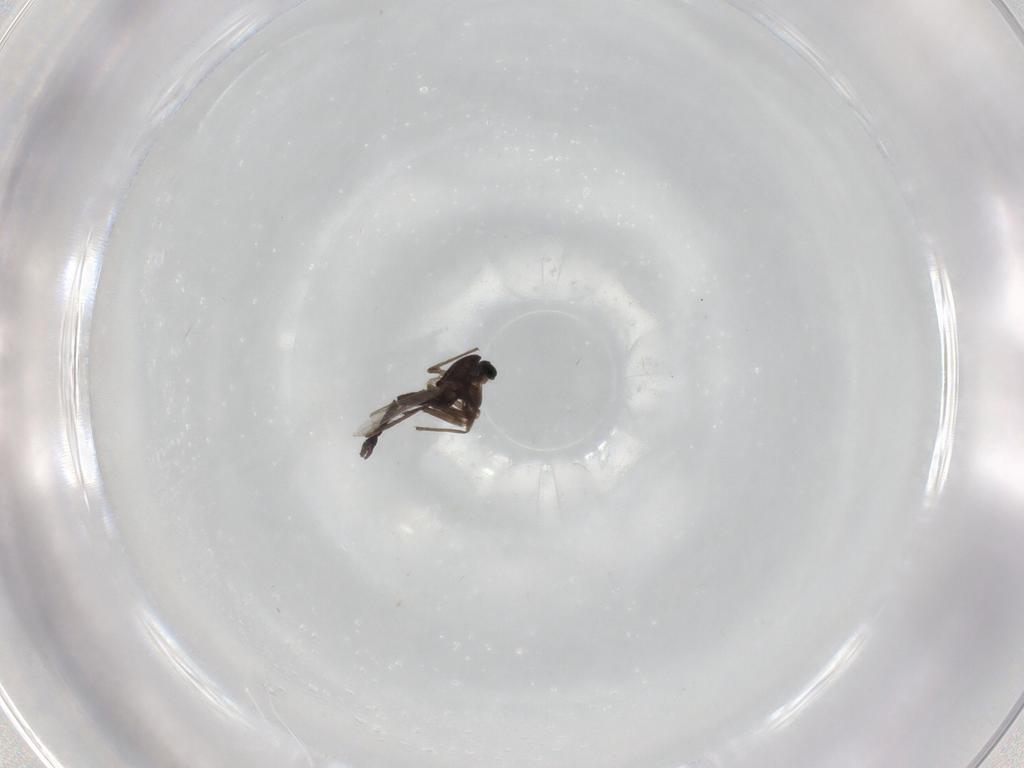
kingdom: Animalia
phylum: Arthropoda
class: Insecta
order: Diptera
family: Chironomidae
